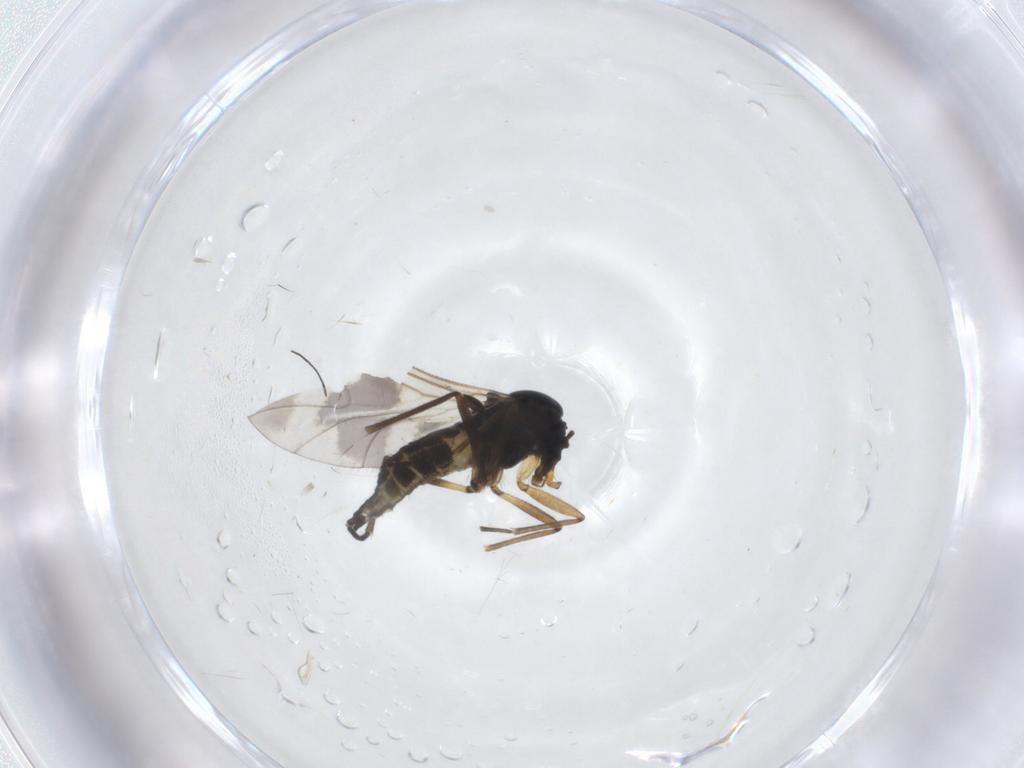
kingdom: Animalia
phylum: Arthropoda
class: Insecta
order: Diptera
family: Sciaridae
